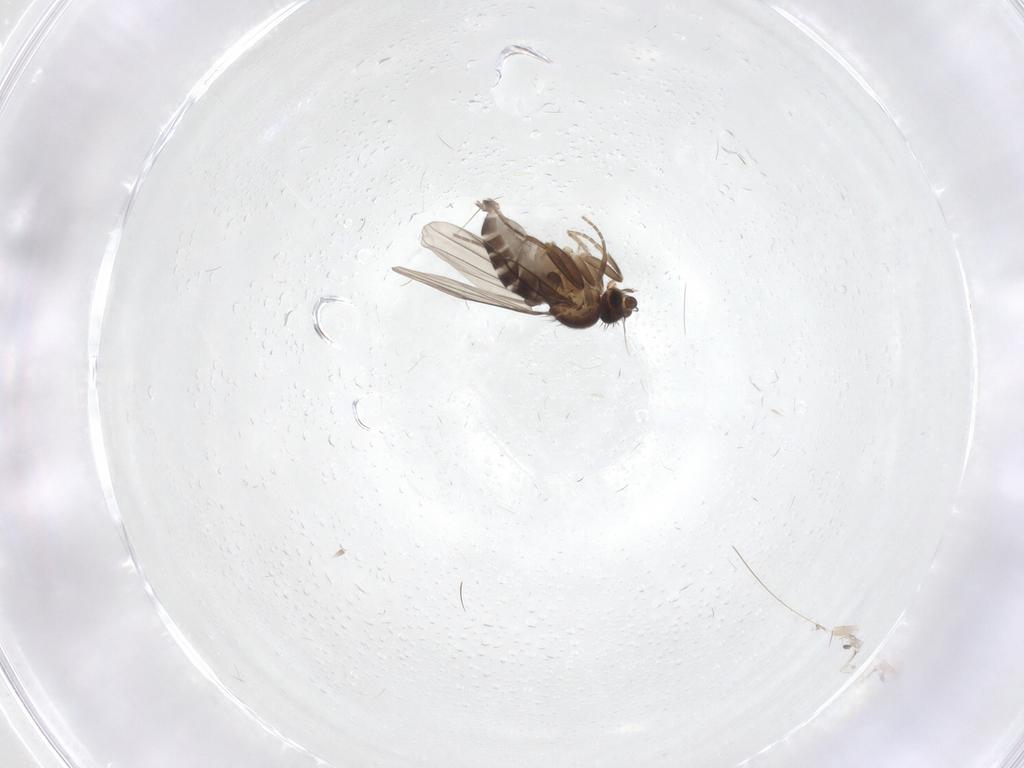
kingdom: Animalia
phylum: Arthropoda
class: Insecta
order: Diptera
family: Phoridae
